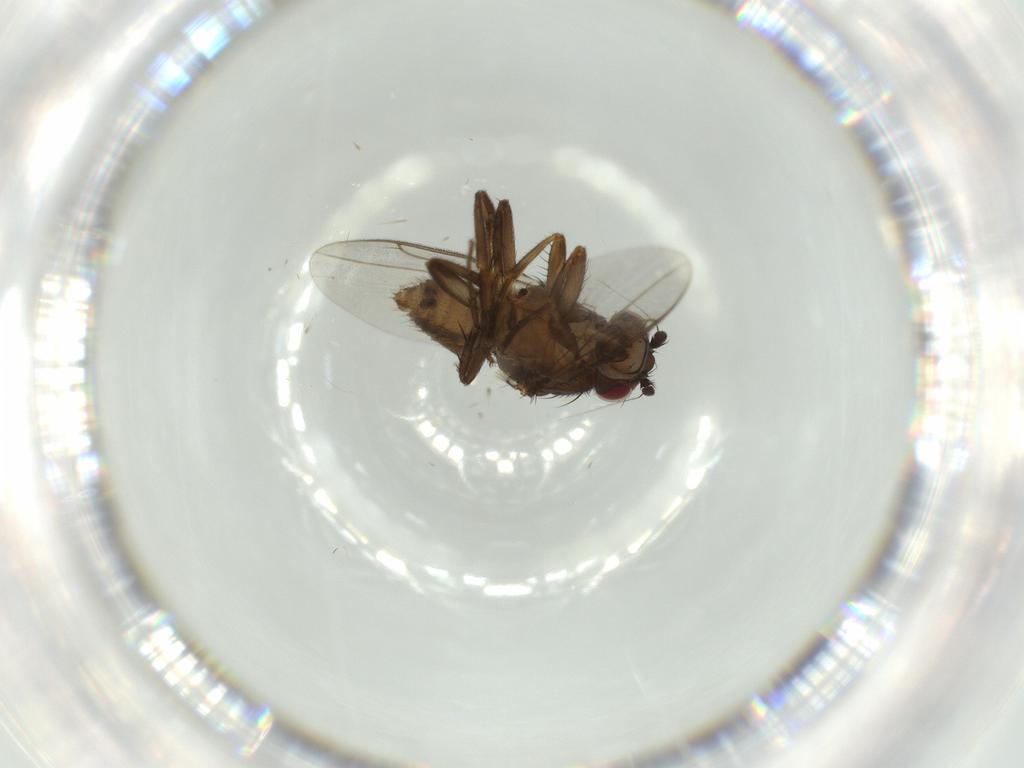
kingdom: Animalia
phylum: Arthropoda
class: Insecta
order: Diptera
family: Sphaeroceridae
